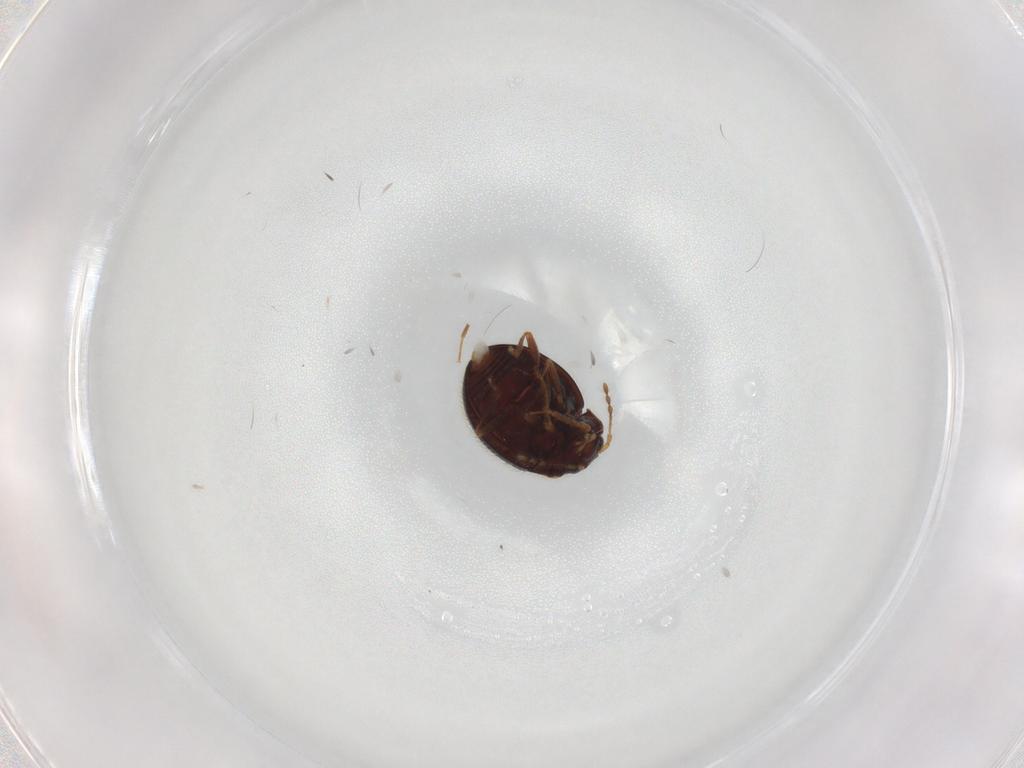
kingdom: Animalia
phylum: Arthropoda
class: Insecta
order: Coleoptera
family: Anamorphidae
